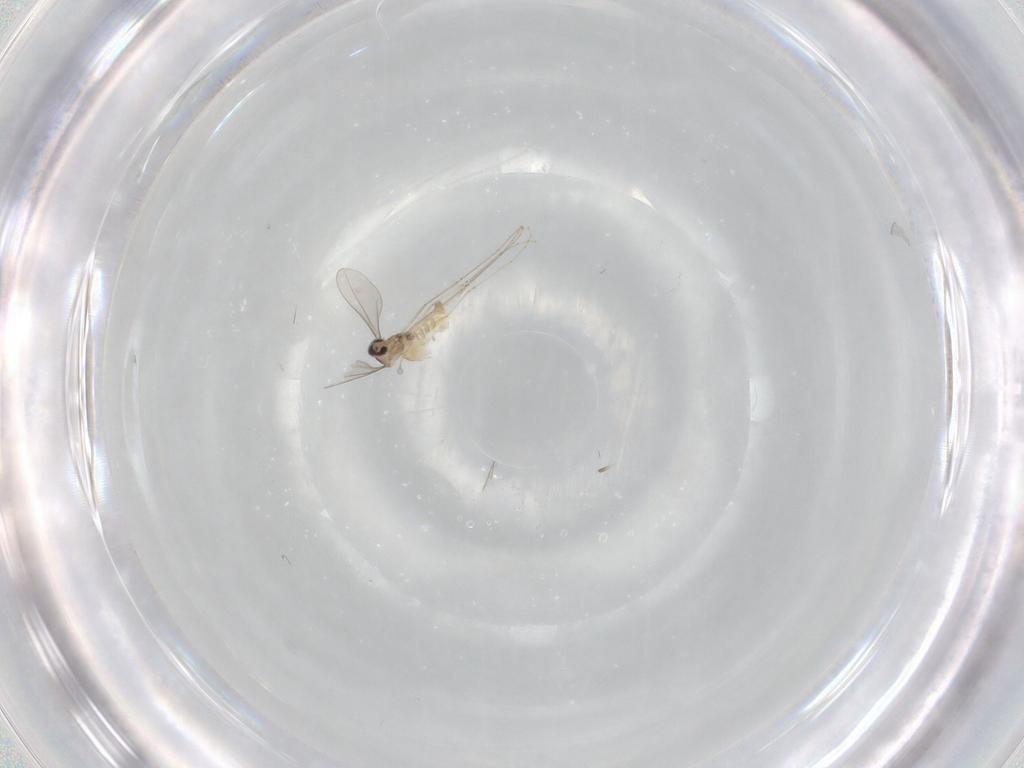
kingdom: Animalia
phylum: Arthropoda
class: Insecta
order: Diptera
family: Cecidomyiidae
